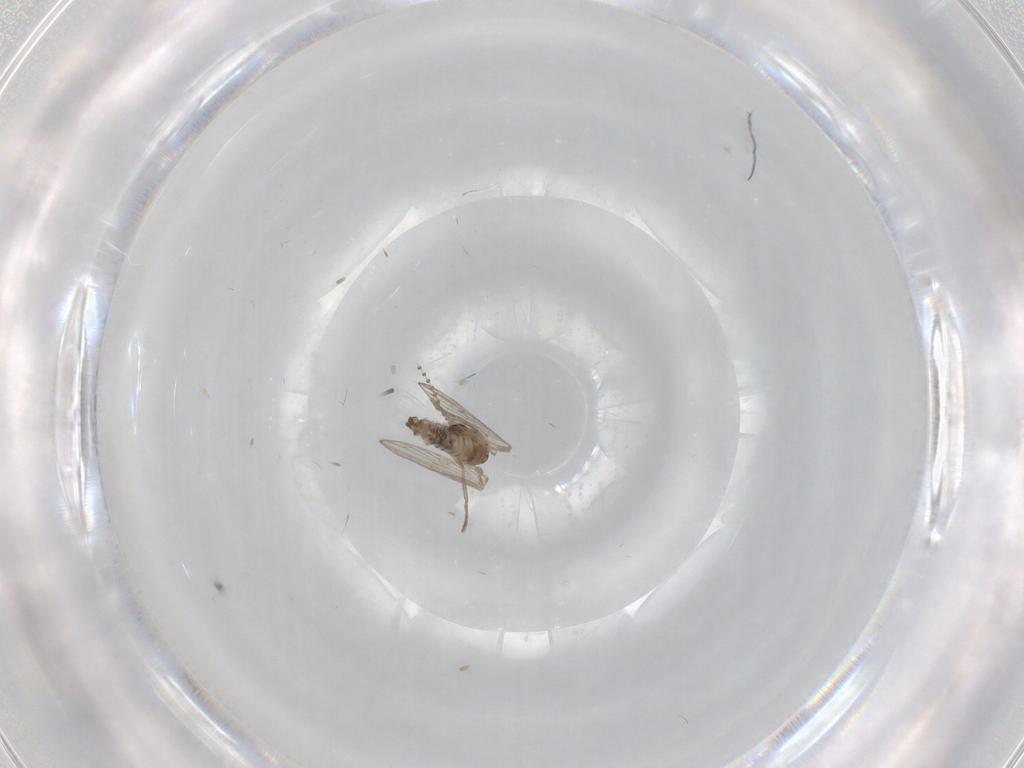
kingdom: Animalia
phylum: Arthropoda
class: Insecta
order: Diptera
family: Psychodidae
